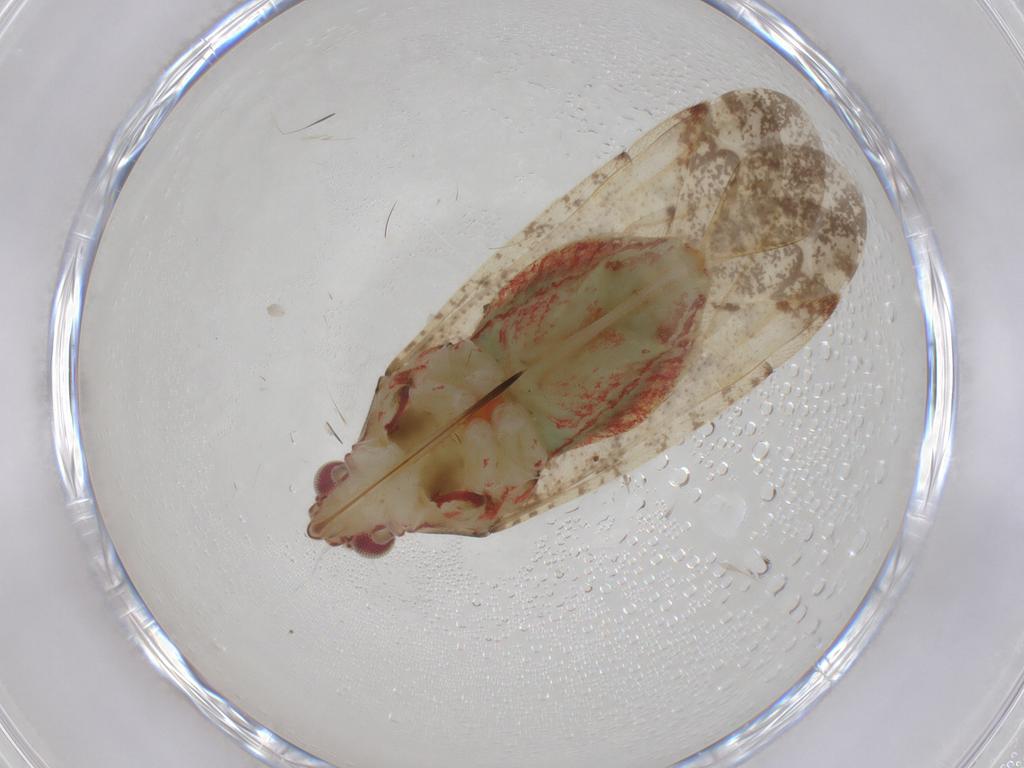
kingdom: Animalia
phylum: Arthropoda
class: Insecta
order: Hemiptera
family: Miridae
